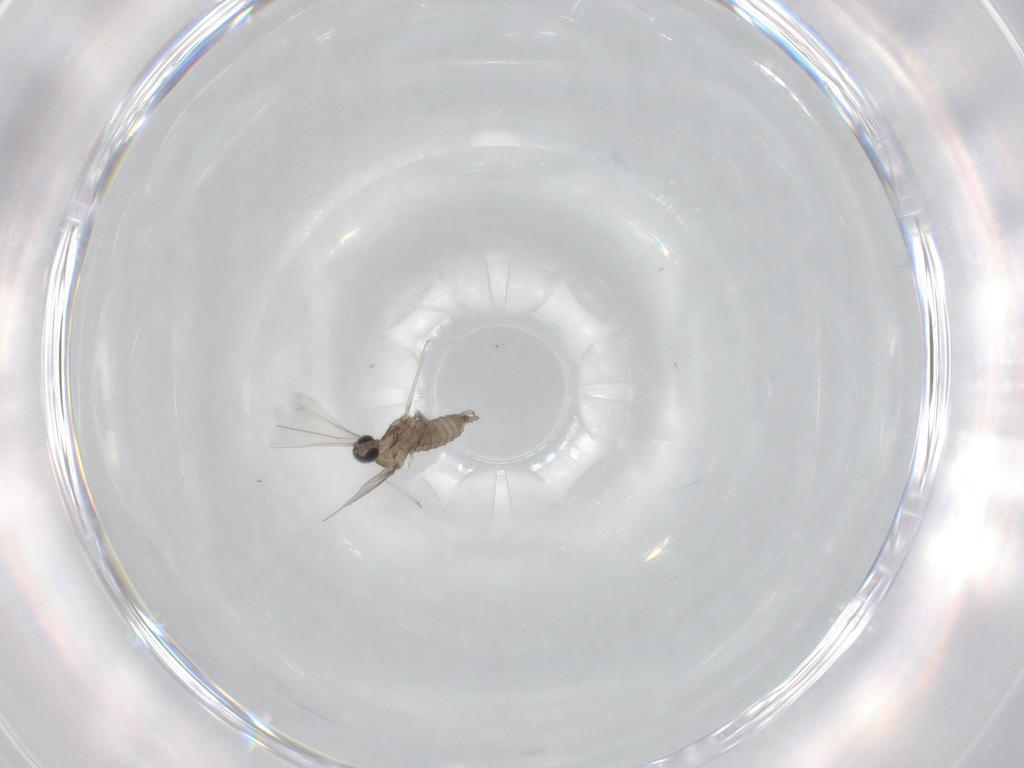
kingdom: Animalia
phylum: Arthropoda
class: Insecta
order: Diptera
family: Cecidomyiidae
